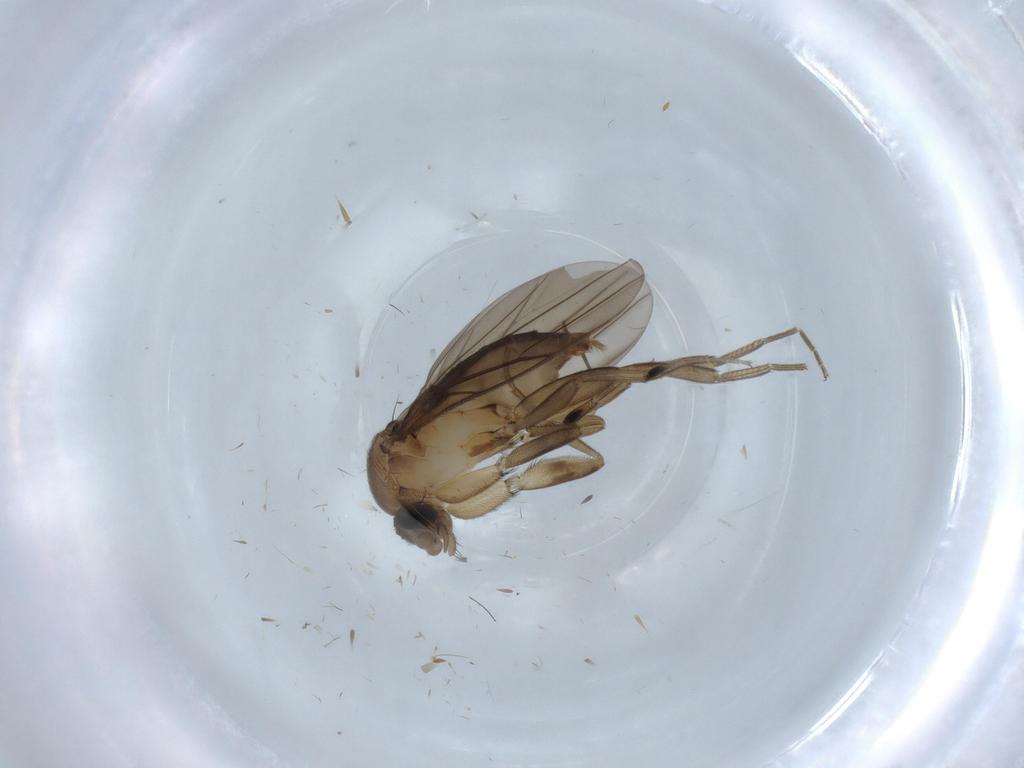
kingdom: Animalia
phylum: Arthropoda
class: Insecta
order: Diptera
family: Phoridae
